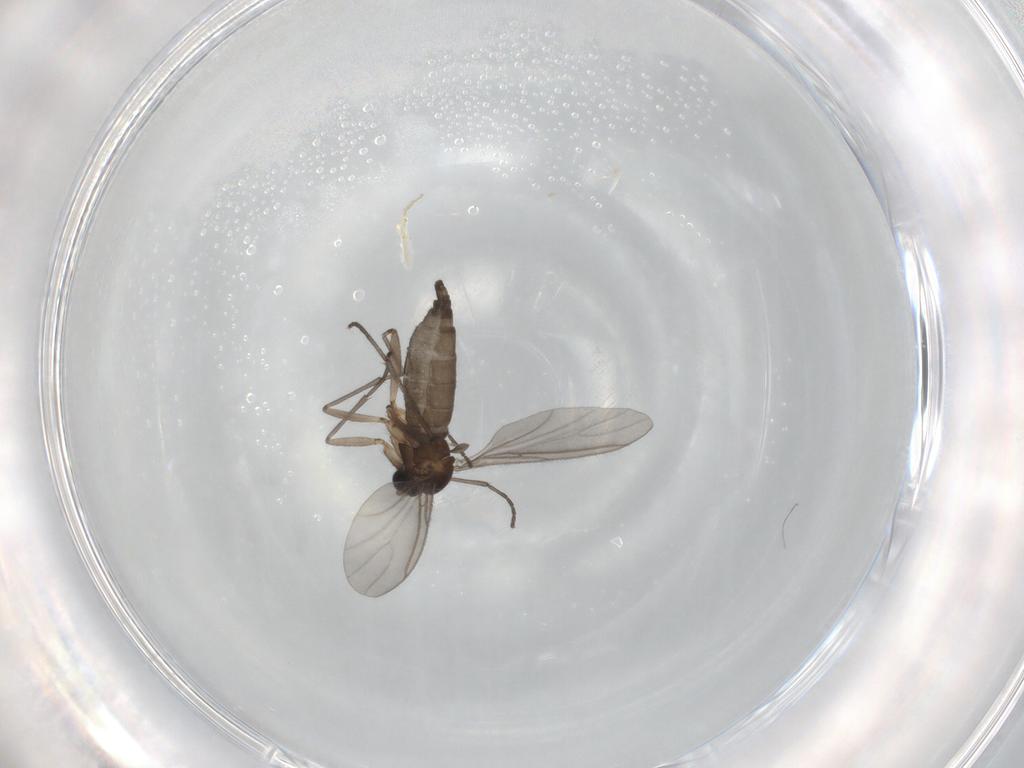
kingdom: Animalia
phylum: Arthropoda
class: Insecta
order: Diptera
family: Sciaridae
